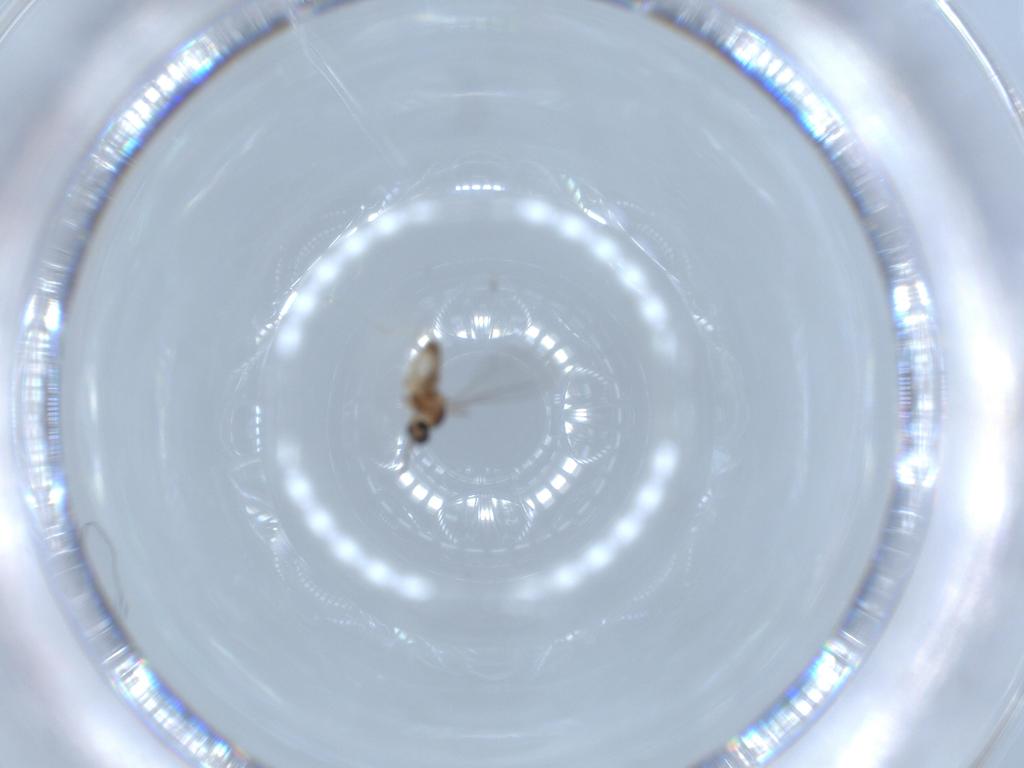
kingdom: Animalia
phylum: Arthropoda
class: Insecta
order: Diptera
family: Cecidomyiidae
